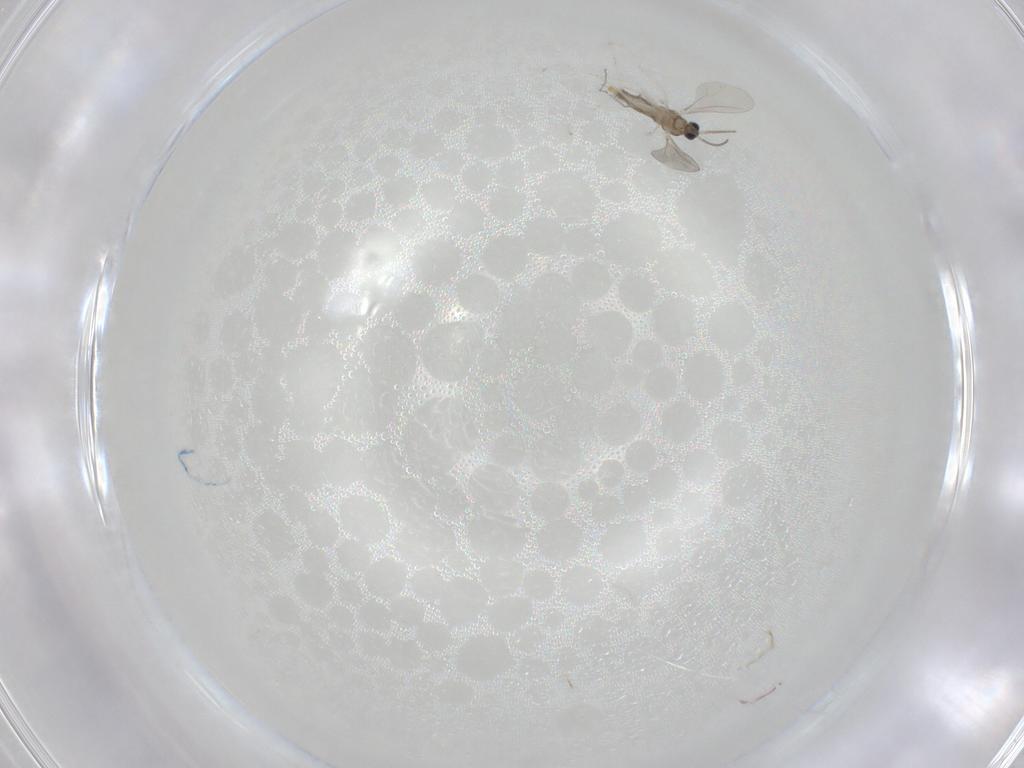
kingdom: Animalia
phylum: Arthropoda
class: Insecta
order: Diptera
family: Cecidomyiidae
